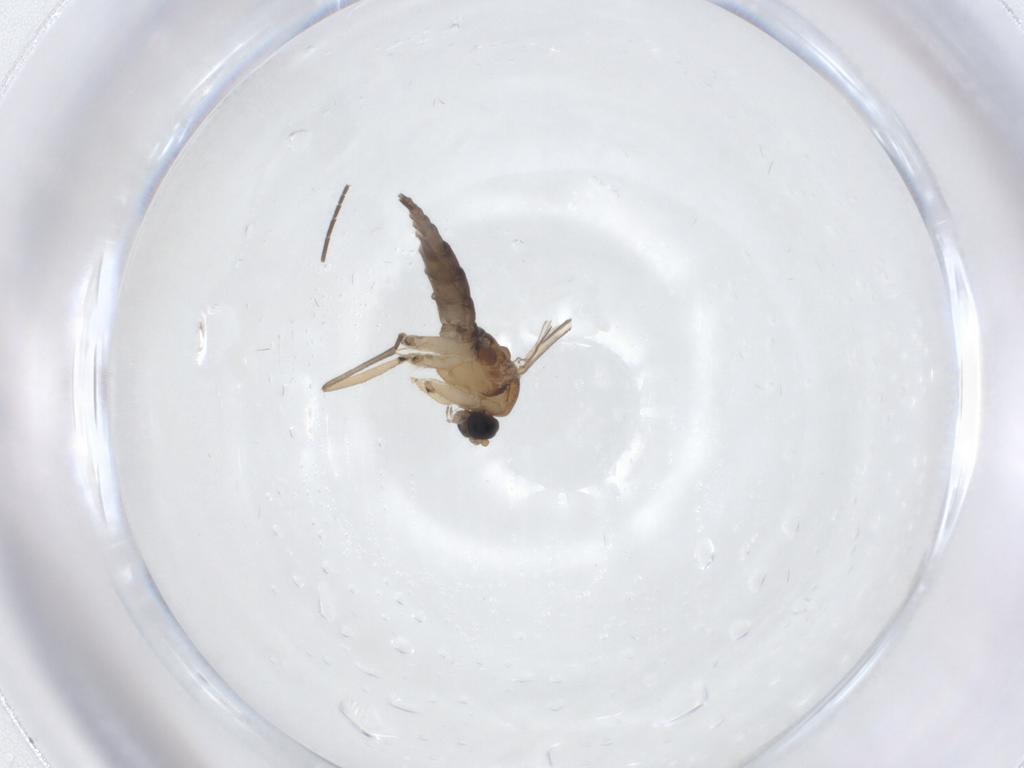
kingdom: Animalia
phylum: Arthropoda
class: Insecta
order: Diptera
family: Sciaridae
